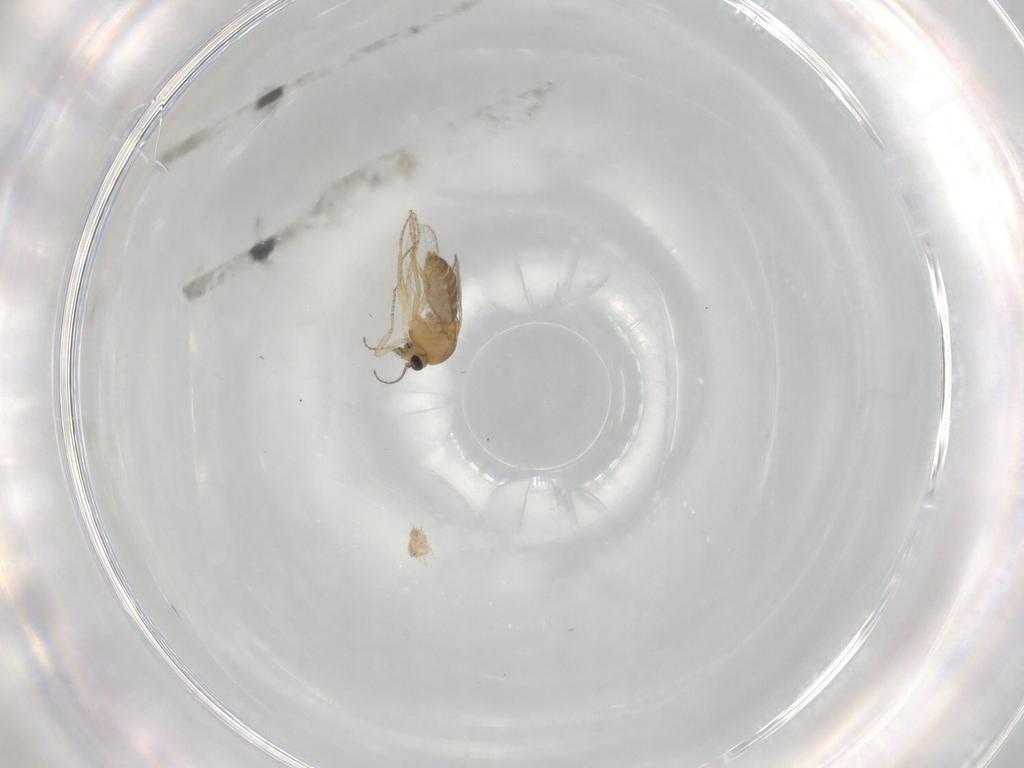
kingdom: Animalia
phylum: Arthropoda
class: Insecta
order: Diptera
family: Ceratopogonidae
